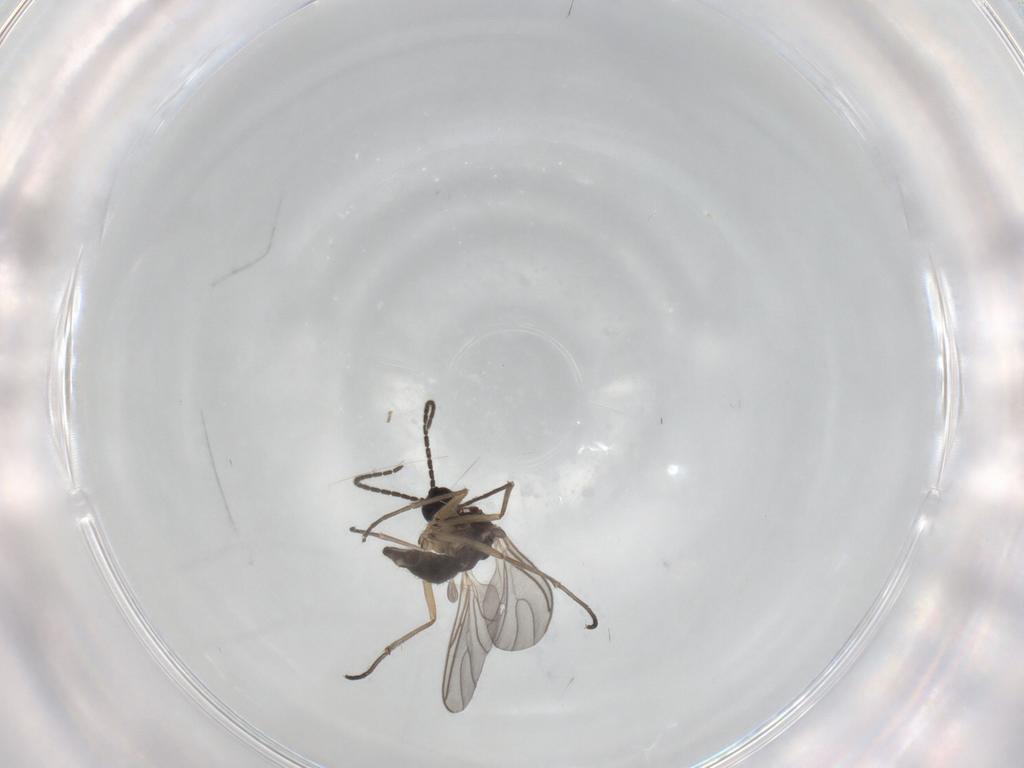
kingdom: Animalia
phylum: Arthropoda
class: Insecta
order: Diptera
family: Sciaridae
